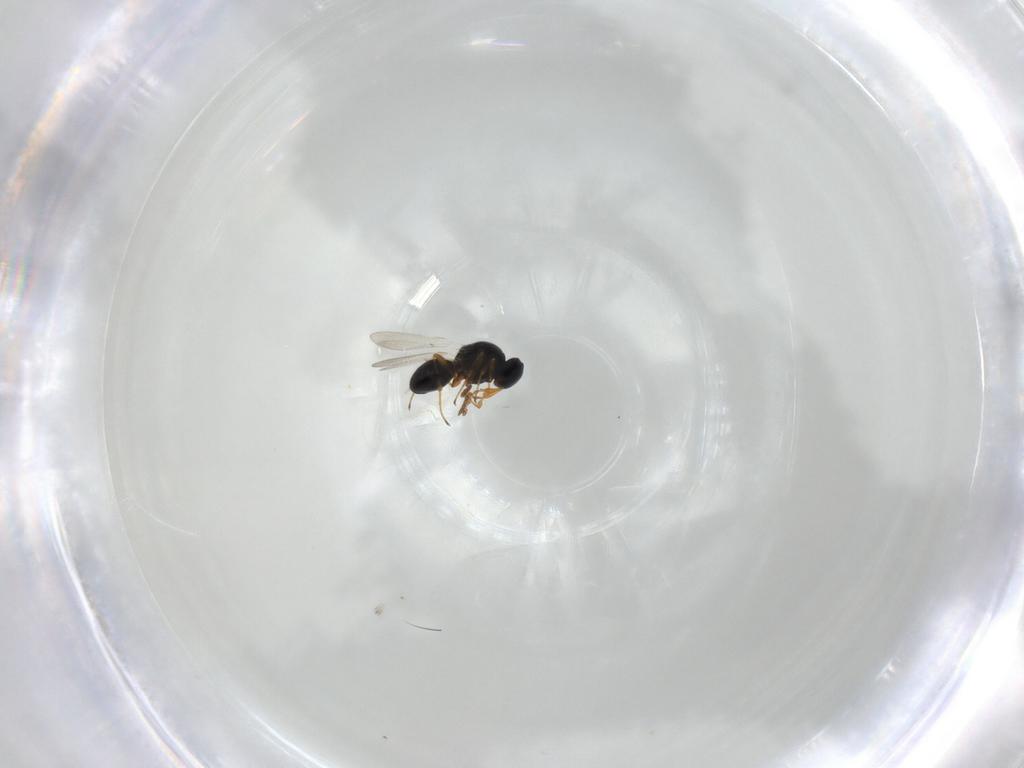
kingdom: Animalia
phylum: Arthropoda
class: Insecta
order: Hymenoptera
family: Platygastridae
